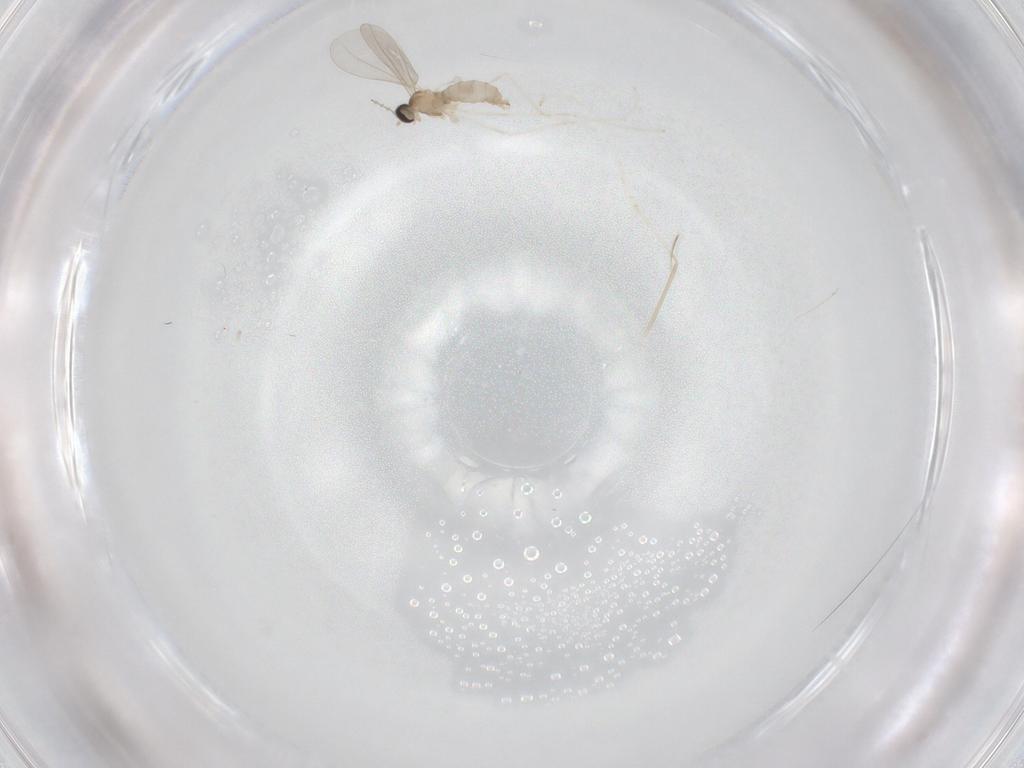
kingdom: Animalia
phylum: Arthropoda
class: Insecta
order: Diptera
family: Cecidomyiidae
